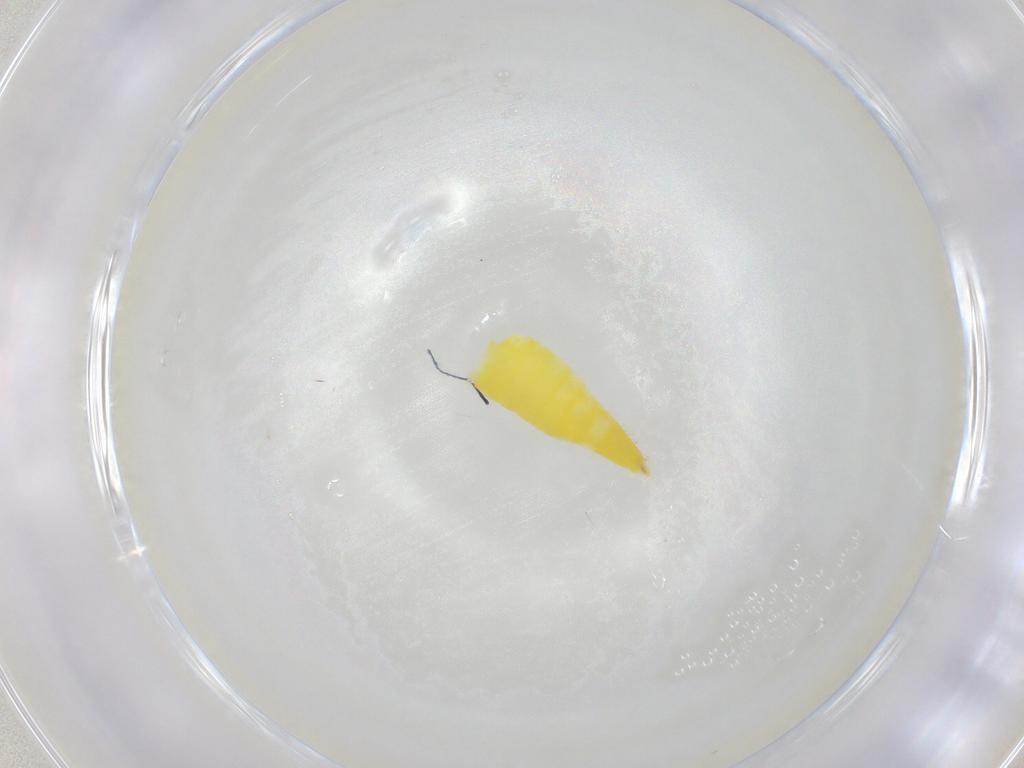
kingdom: Animalia
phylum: Arthropoda
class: Insecta
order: Hemiptera
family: Cicadellidae
